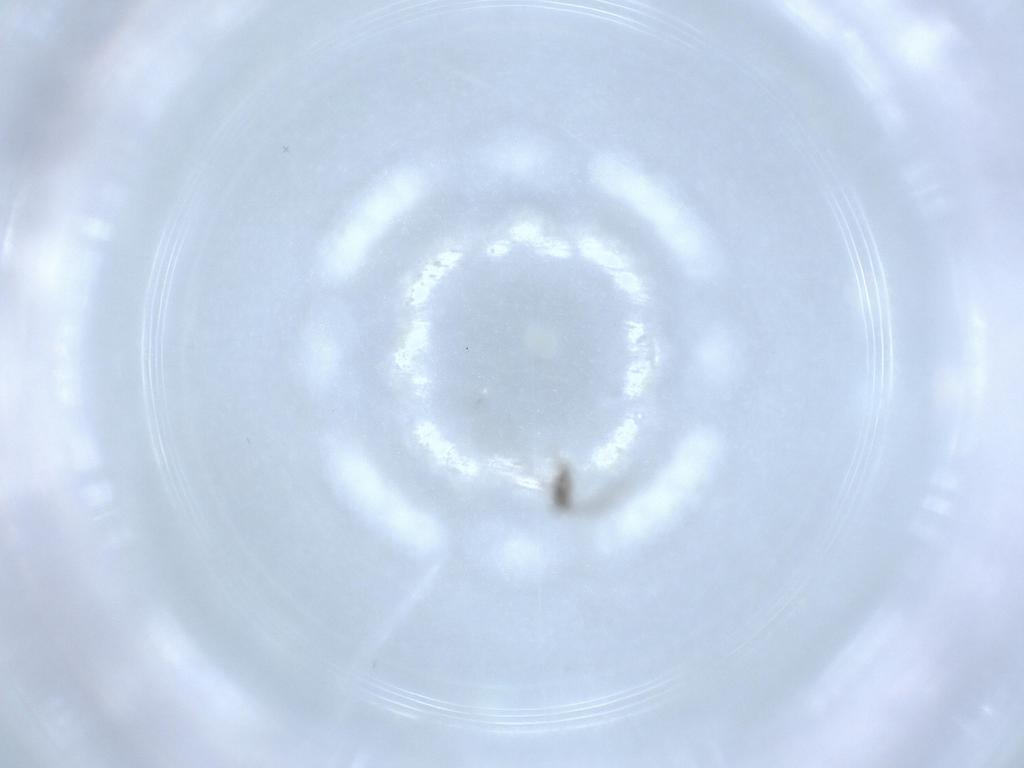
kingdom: Animalia
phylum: Arthropoda
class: Insecta
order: Diptera
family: Cecidomyiidae
